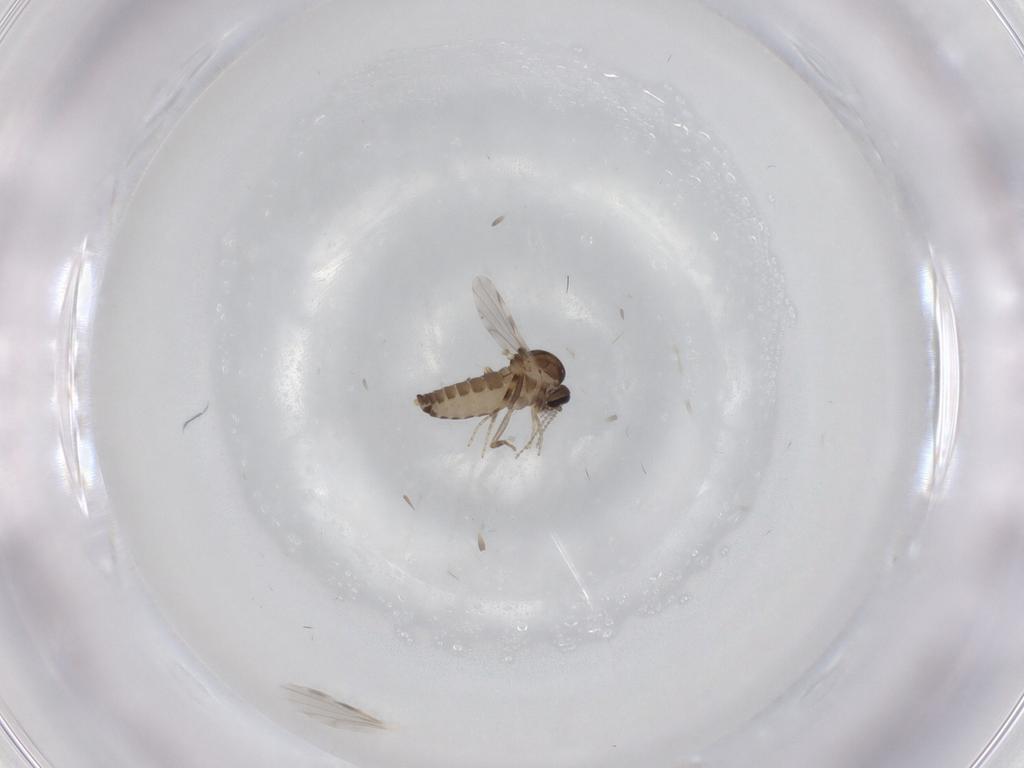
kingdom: Animalia
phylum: Arthropoda
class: Insecta
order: Diptera
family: Ceratopogonidae
